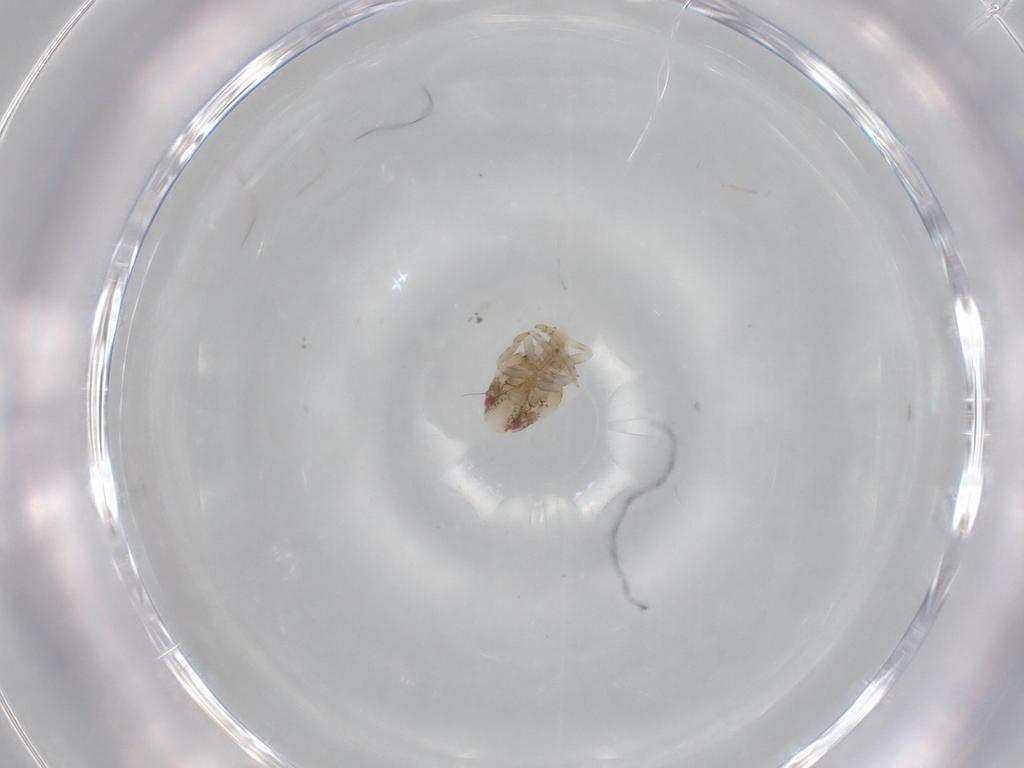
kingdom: Animalia
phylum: Arthropoda
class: Insecta
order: Hemiptera
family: Acanaloniidae
